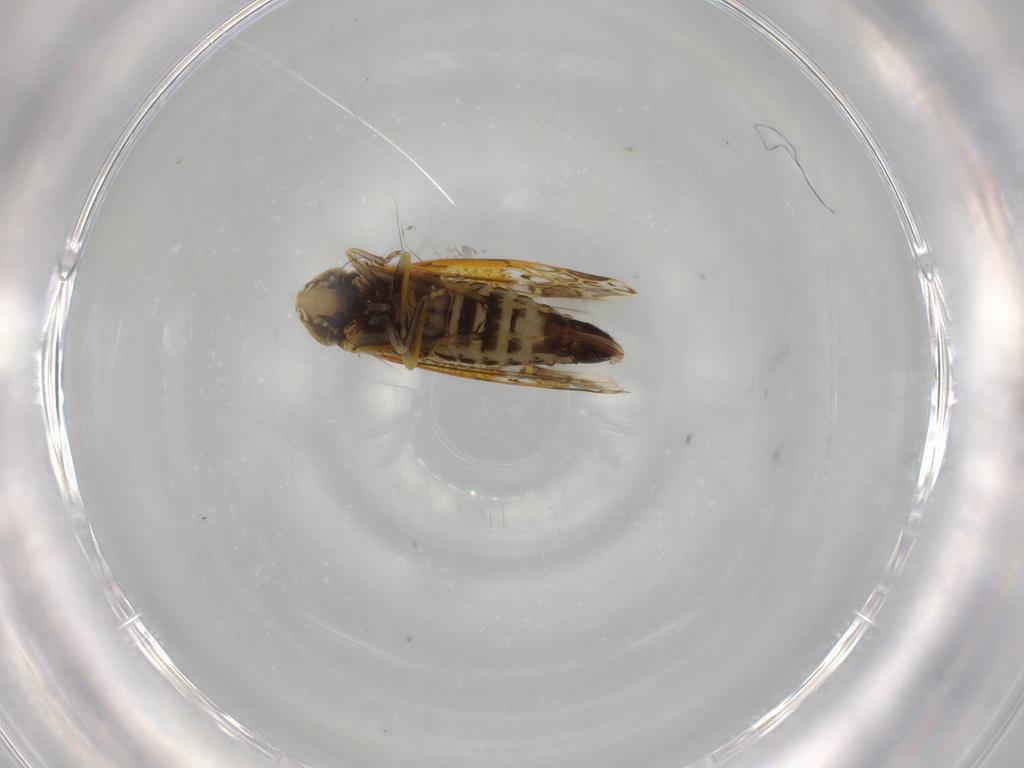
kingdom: Animalia
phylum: Arthropoda
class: Insecta
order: Hemiptera
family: Cicadellidae
